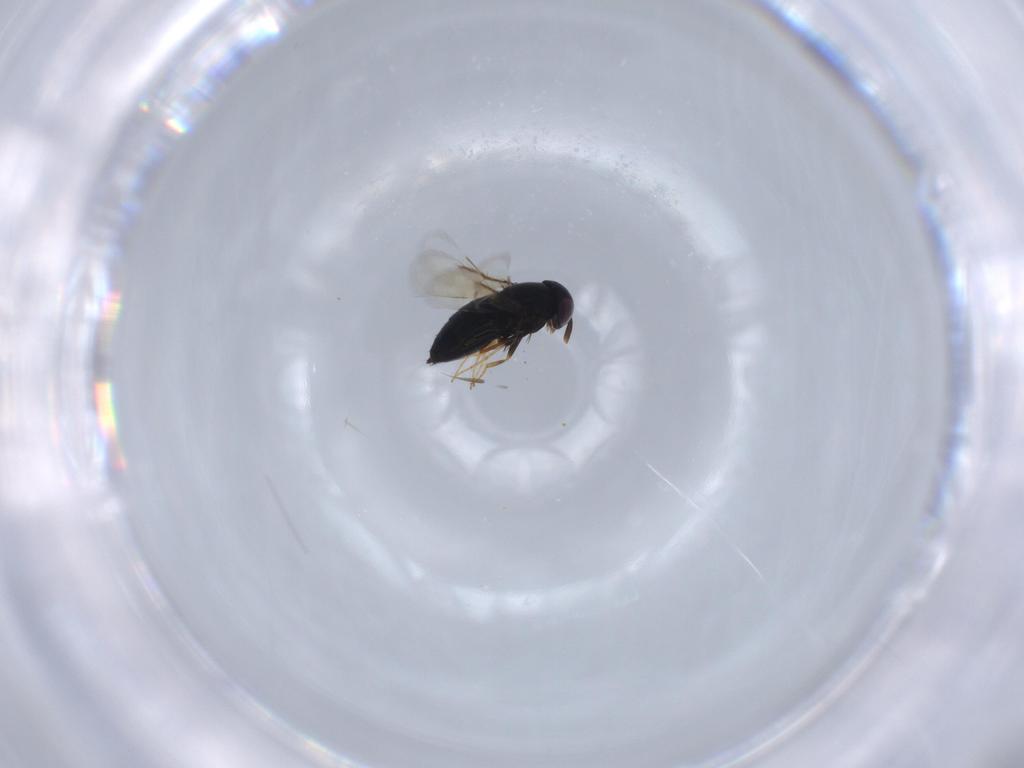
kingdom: Animalia
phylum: Arthropoda
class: Insecta
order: Hymenoptera
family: Signiphoridae
